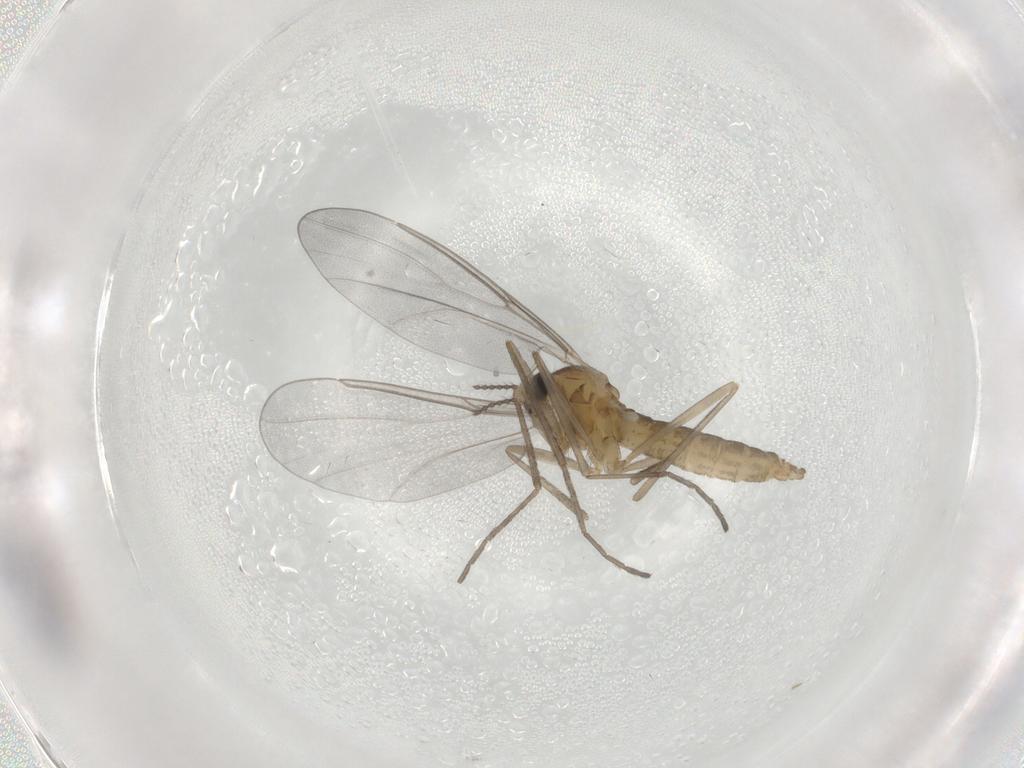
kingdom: Animalia
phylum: Arthropoda
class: Insecta
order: Diptera
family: Cecidomyiidae
